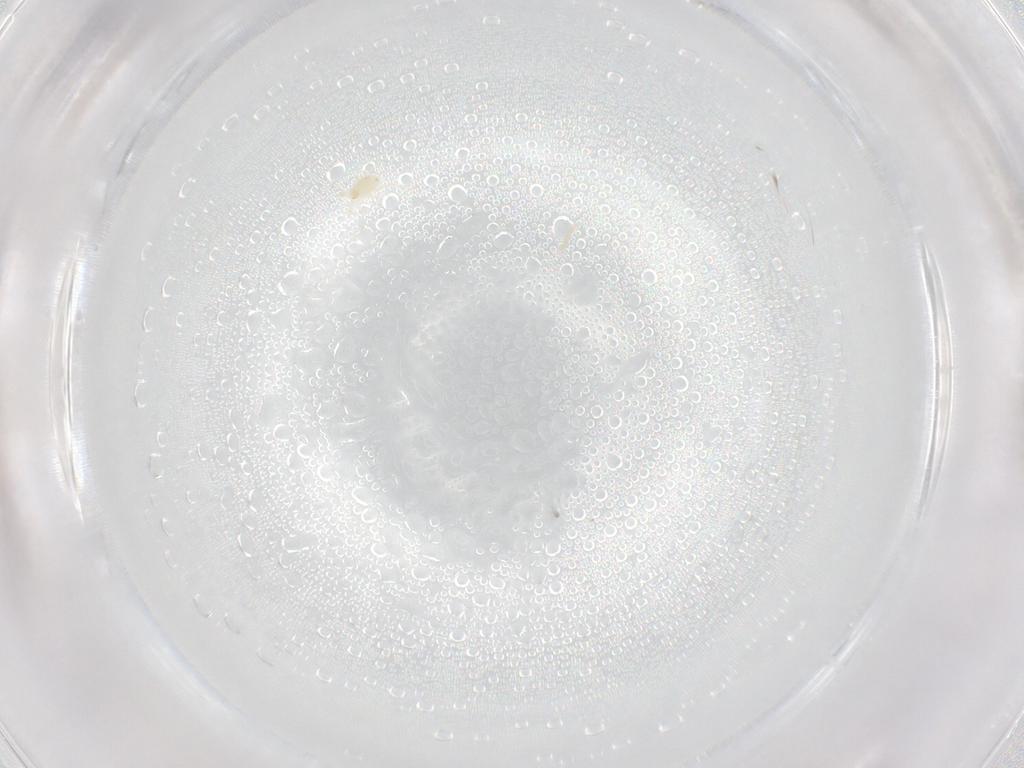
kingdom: Animalia
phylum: Arthropoda
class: Arachnida
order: Mesostigmata
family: Phytoseiidae
